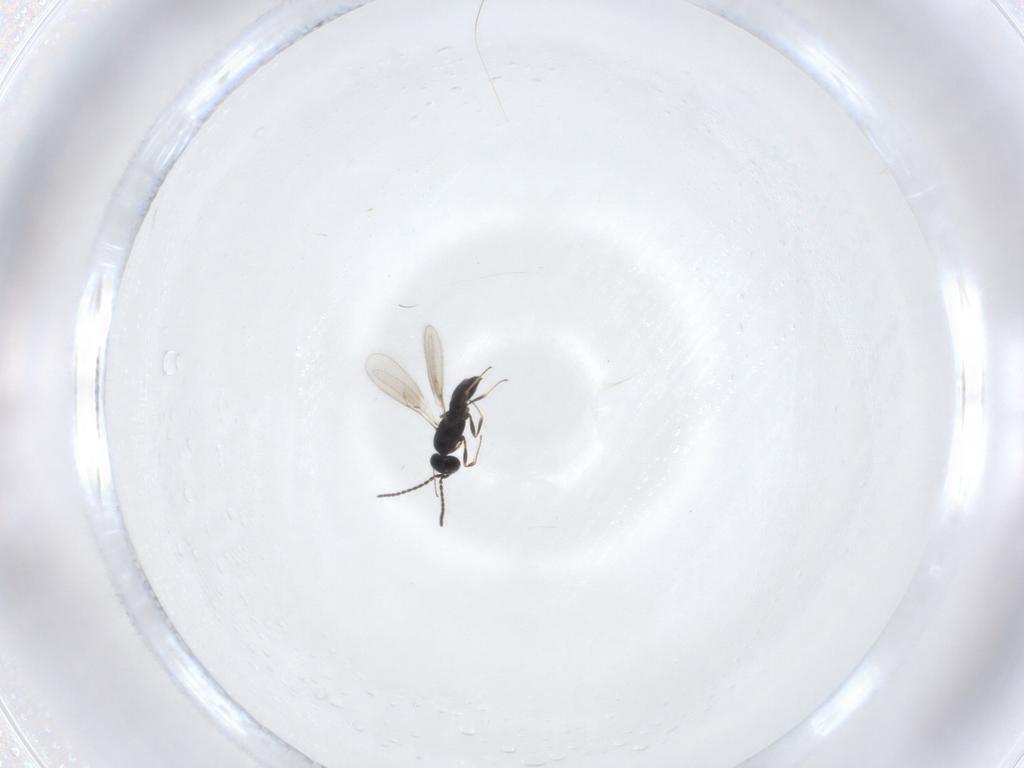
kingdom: Animalia
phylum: Arthropoda
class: Insecta
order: Hymenoptera
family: Scelionidae
